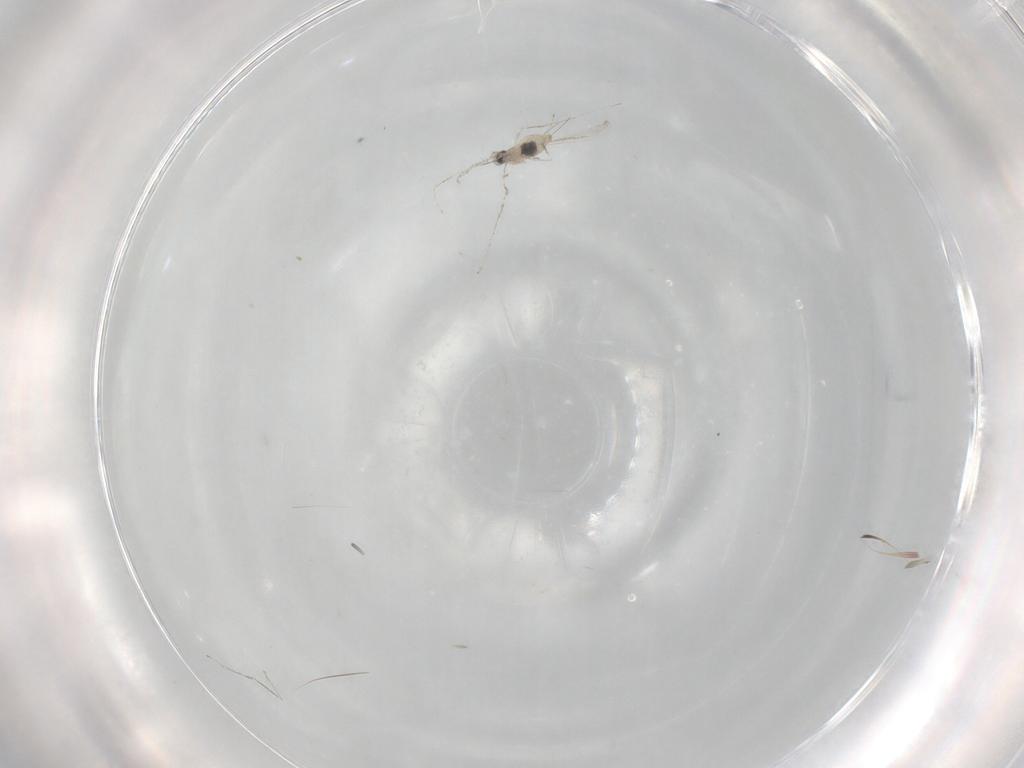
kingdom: Animalia
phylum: Arthropoda
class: Insecta
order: Diptera
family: Cecidomyiidae
